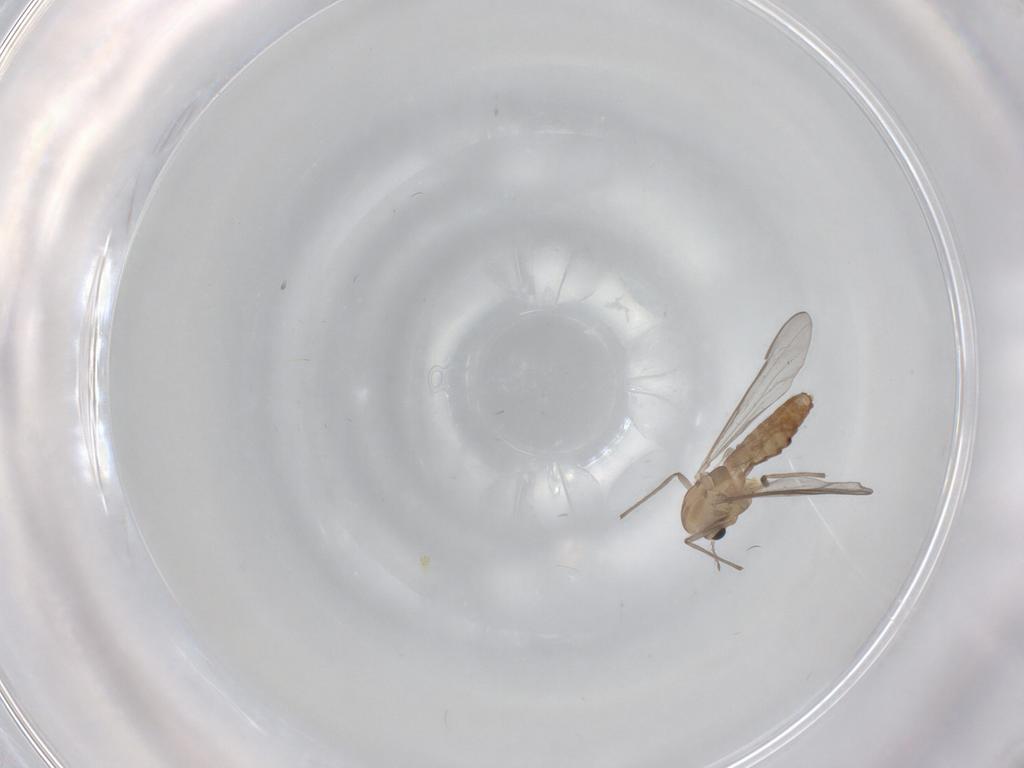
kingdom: Animalia
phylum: Arthropoda
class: Insecta
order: Diptera
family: Chironomidae
